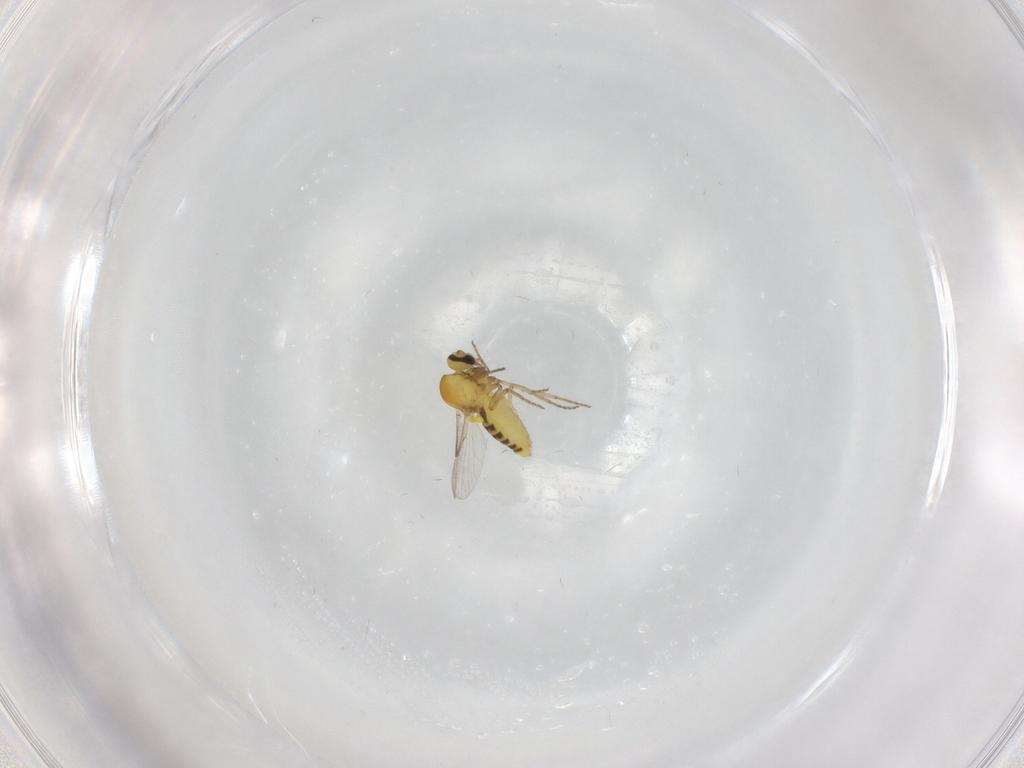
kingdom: Animalia
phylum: Arthropoda
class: Insecta
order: Diptera
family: Ceratopogonidae
